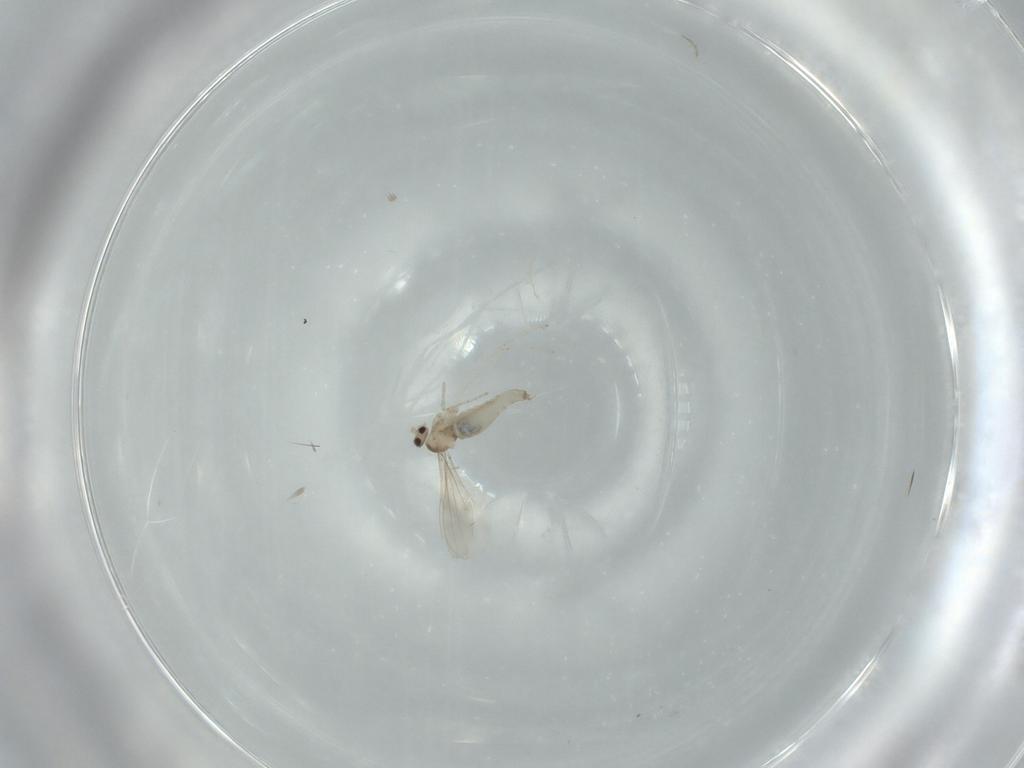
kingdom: Animalia
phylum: Arthropoda
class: Insecta
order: Diptera
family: Cecidomyiidae
